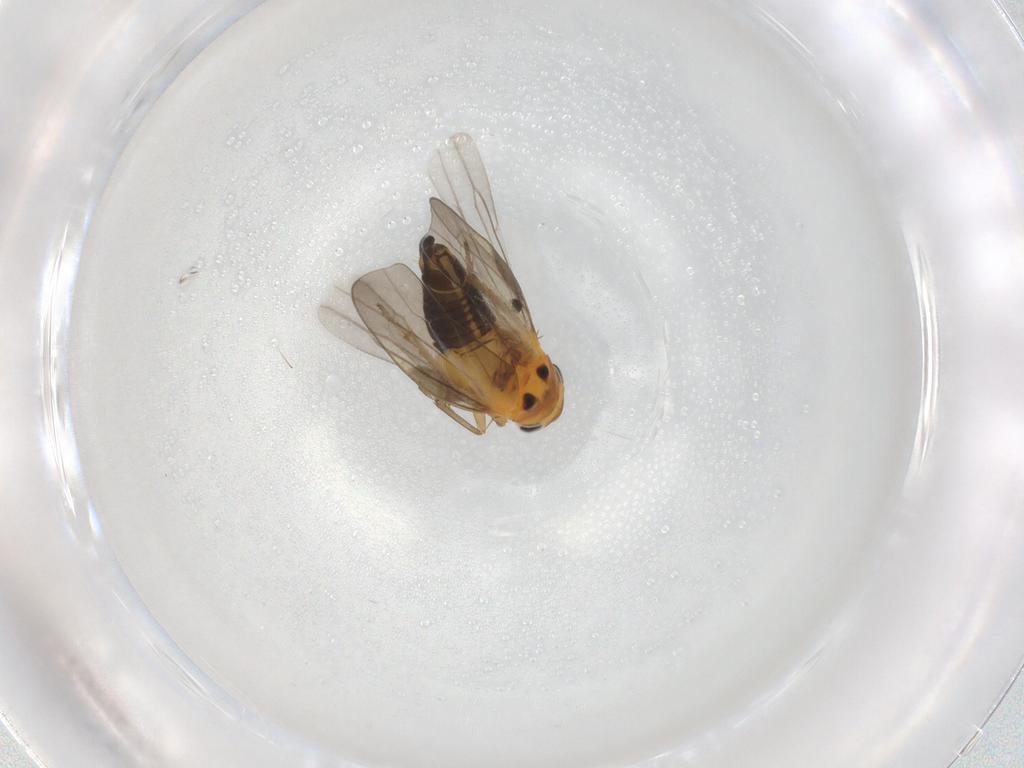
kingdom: Animalia
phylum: Arthropoda
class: Insecta
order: Hemiptera
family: Cicadellidae
